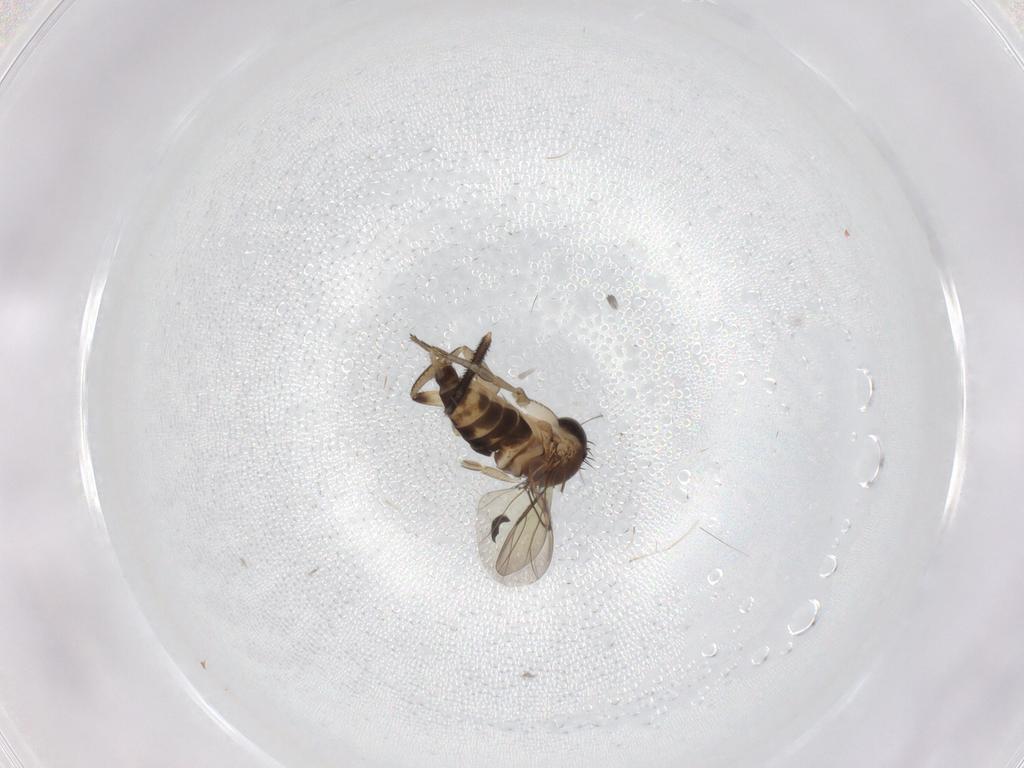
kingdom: Animalia
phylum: Arthropoda
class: Insecta
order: Diptera
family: Mycetophilidae
